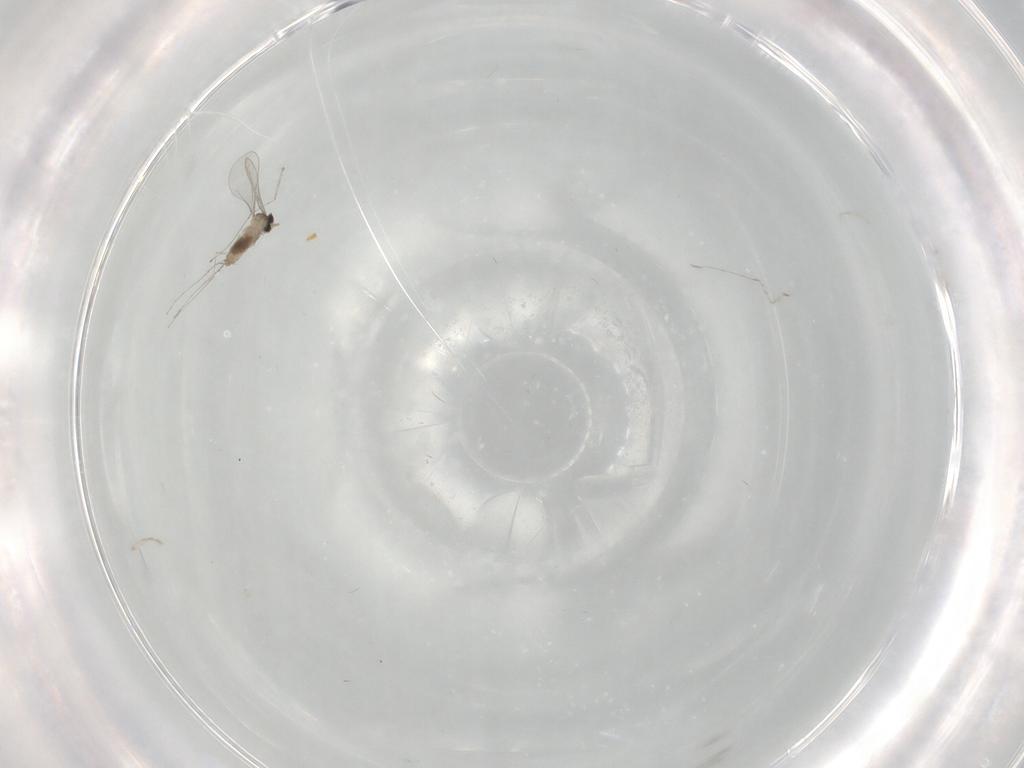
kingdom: Animalia
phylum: Arthropoda
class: Insecta
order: Diptera
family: Cecidomyiidae
